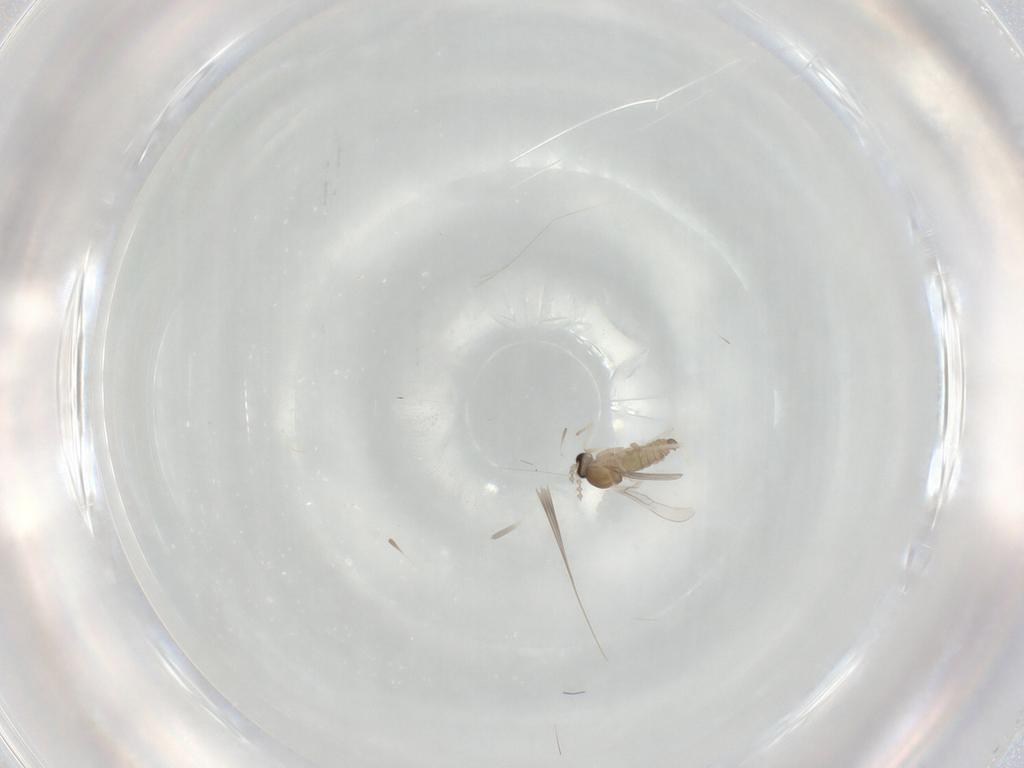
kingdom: Animalia
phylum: Arthropoda
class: Insecta
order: Diptera
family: Cecidomyiidae
